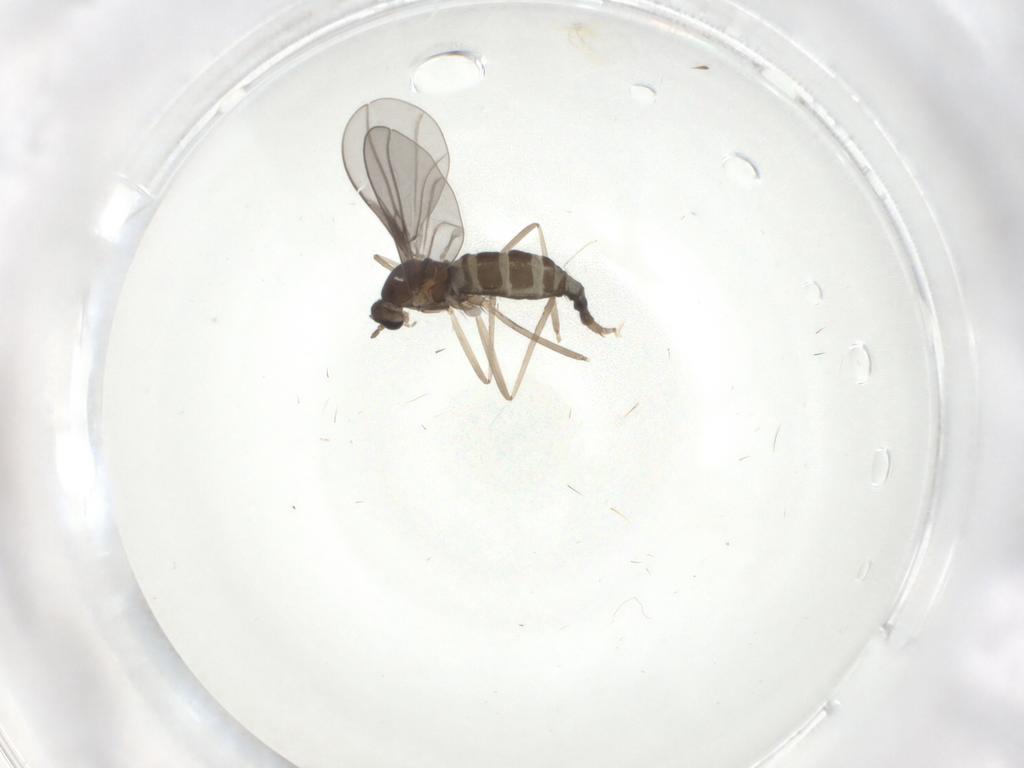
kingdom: Animalia
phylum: Arthropoda
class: Insecta
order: Diptera
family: Cecidomyiidae
